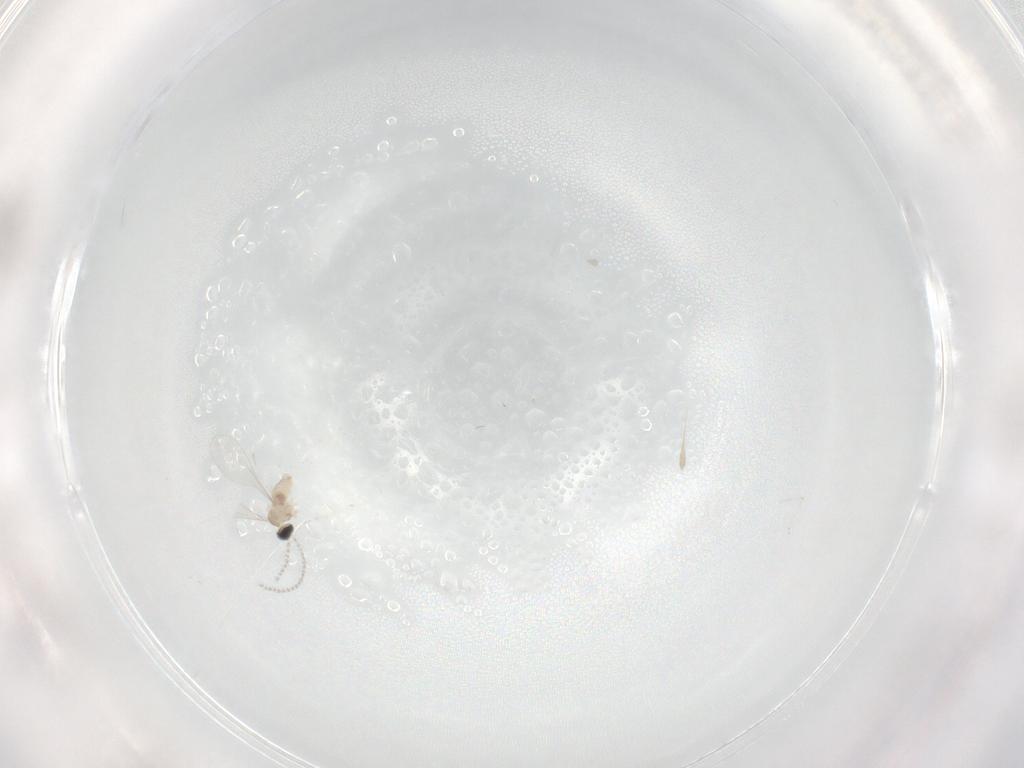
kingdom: Animalia
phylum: Arthropoda
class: Insecta
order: Diptera
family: Cecidomyiidae
